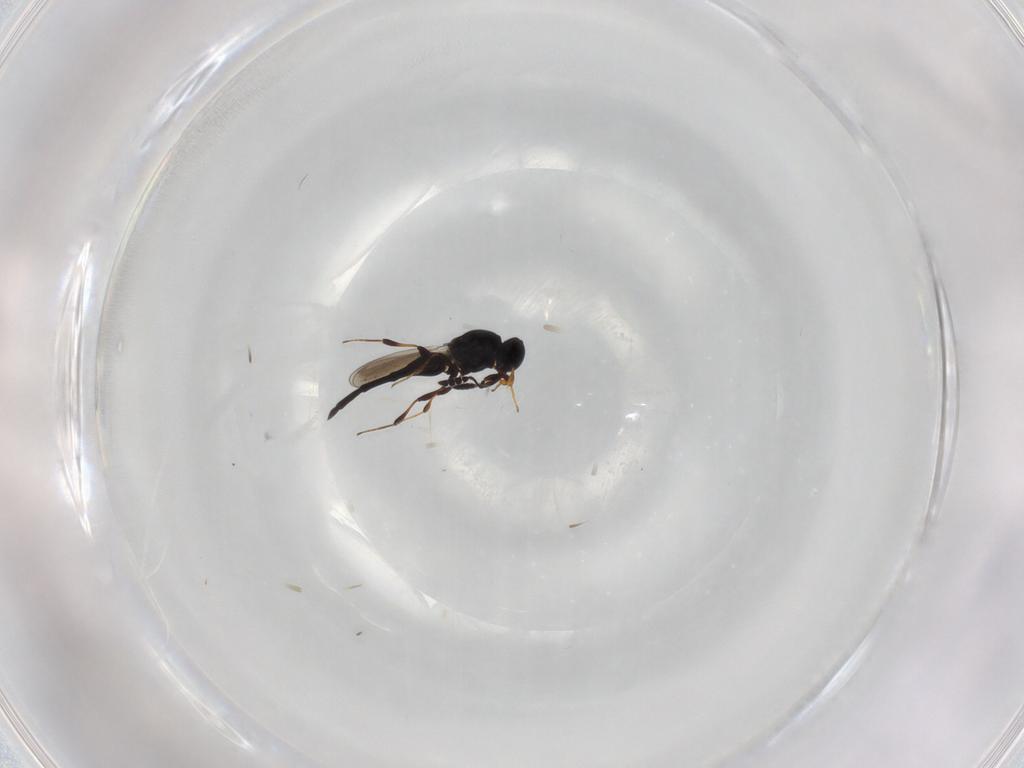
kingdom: Animalia
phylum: Arthropoda
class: Insecta
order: Hymenoptera
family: Platygastridae
